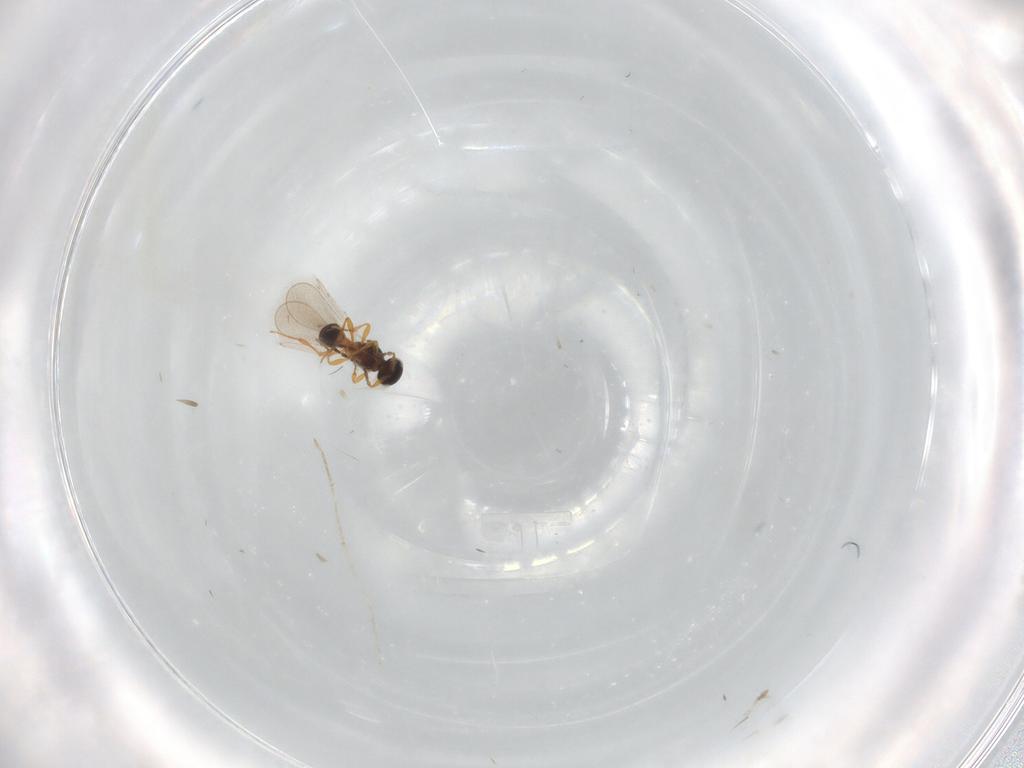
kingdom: Animalia
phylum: Arthropoda
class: Insecta
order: Hymenoptera
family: Platygastridae
